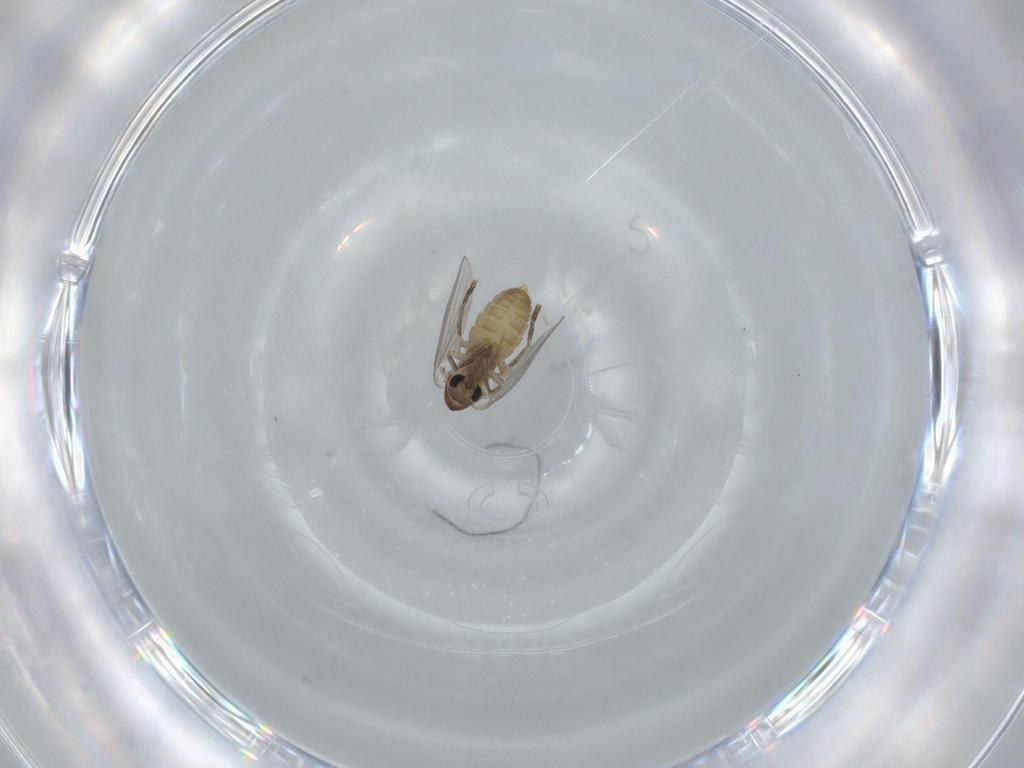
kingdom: Animalia
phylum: Arthropoda
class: Insecta
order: Diptera
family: Psychodidae
